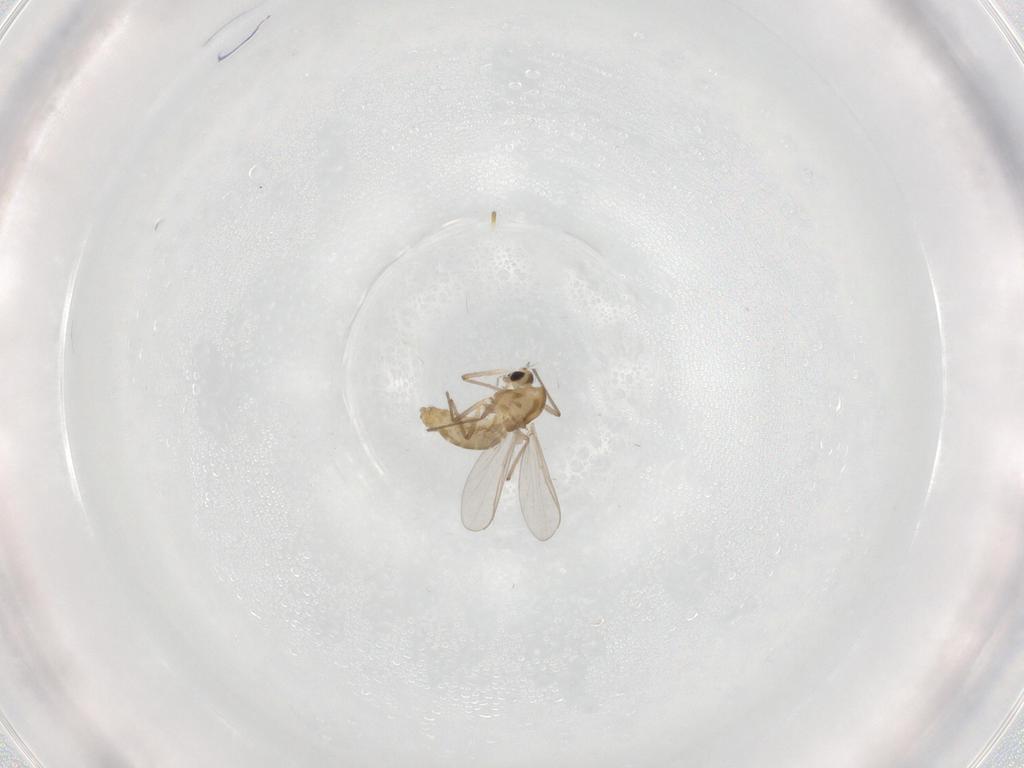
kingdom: Animalia
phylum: Arthropoda
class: Insecta
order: Diptera
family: Chironomidae
